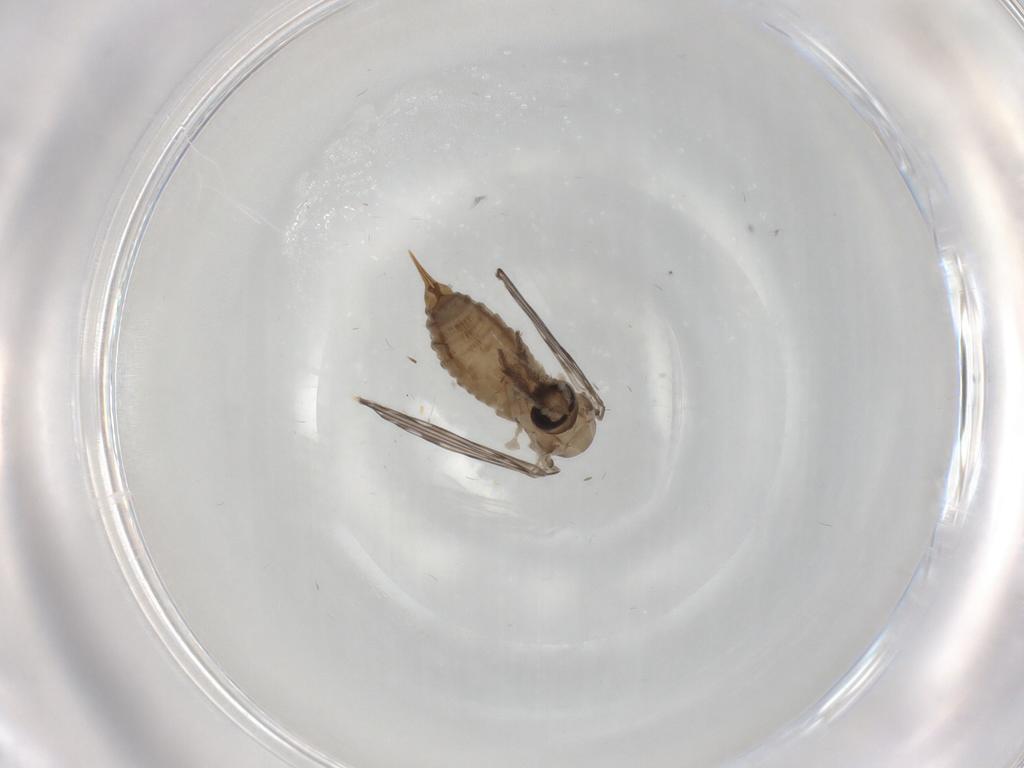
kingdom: Animalia
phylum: Arthropoda
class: Insecta
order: Diptera
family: Psychodidae
